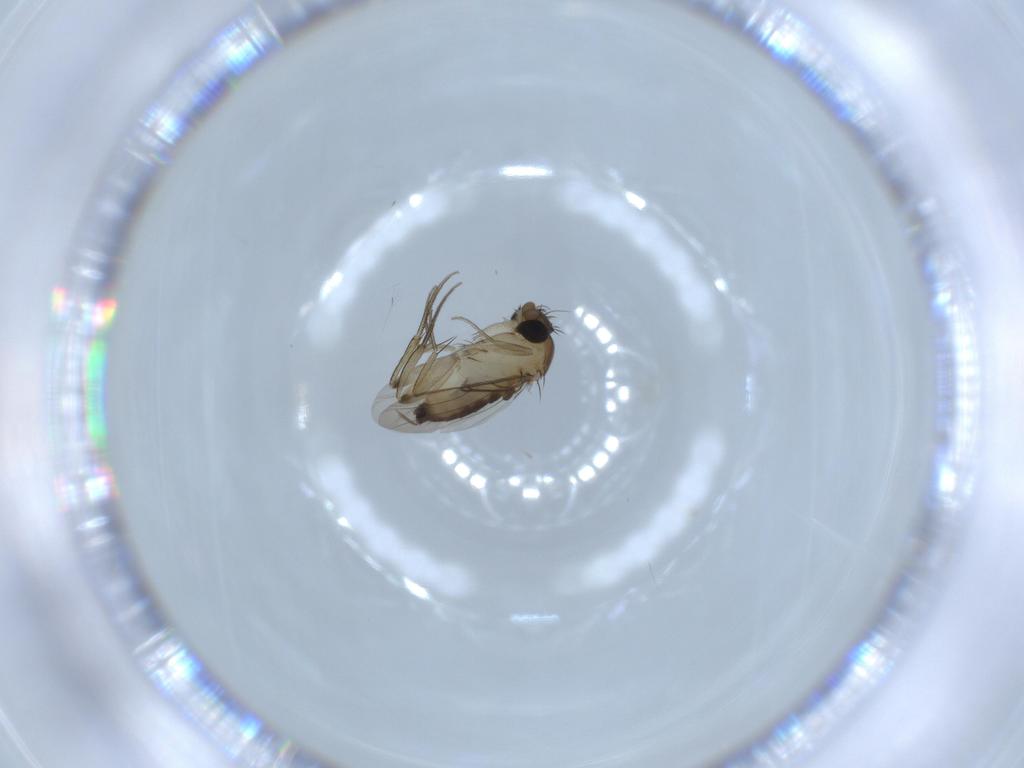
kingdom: Animalia
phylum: Arthropoda
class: Insecta
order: Diptera
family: Phoridae
